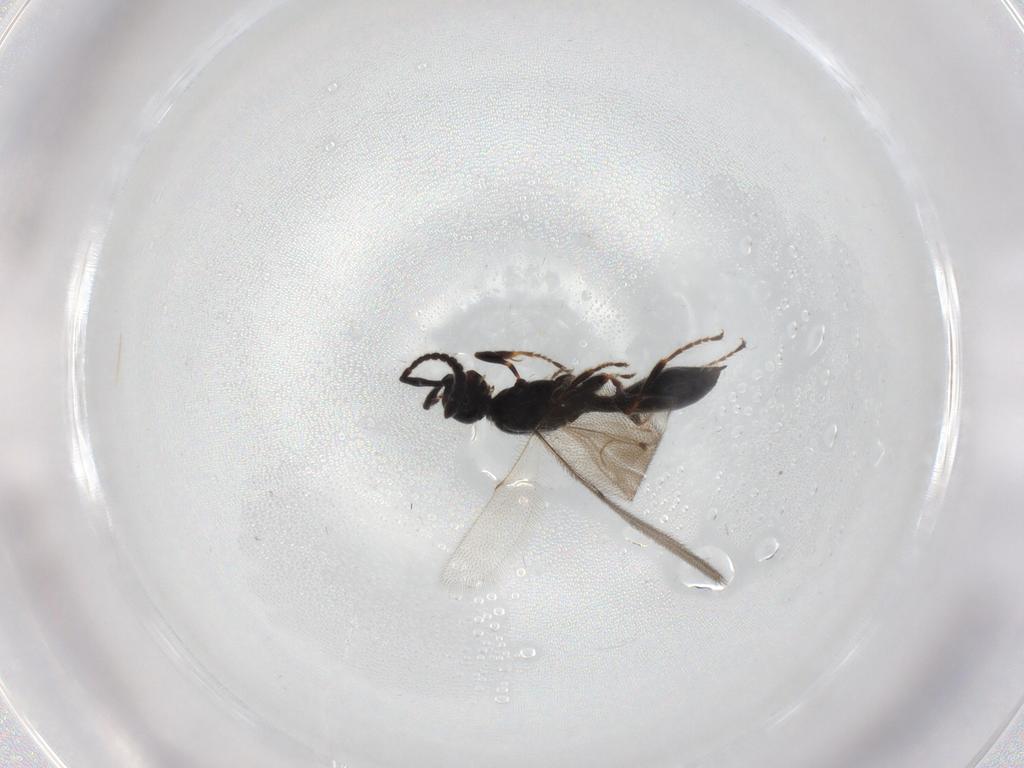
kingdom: Animalia
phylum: Arthropoda
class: Insecta
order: Hymenoptera
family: Diapriidae
